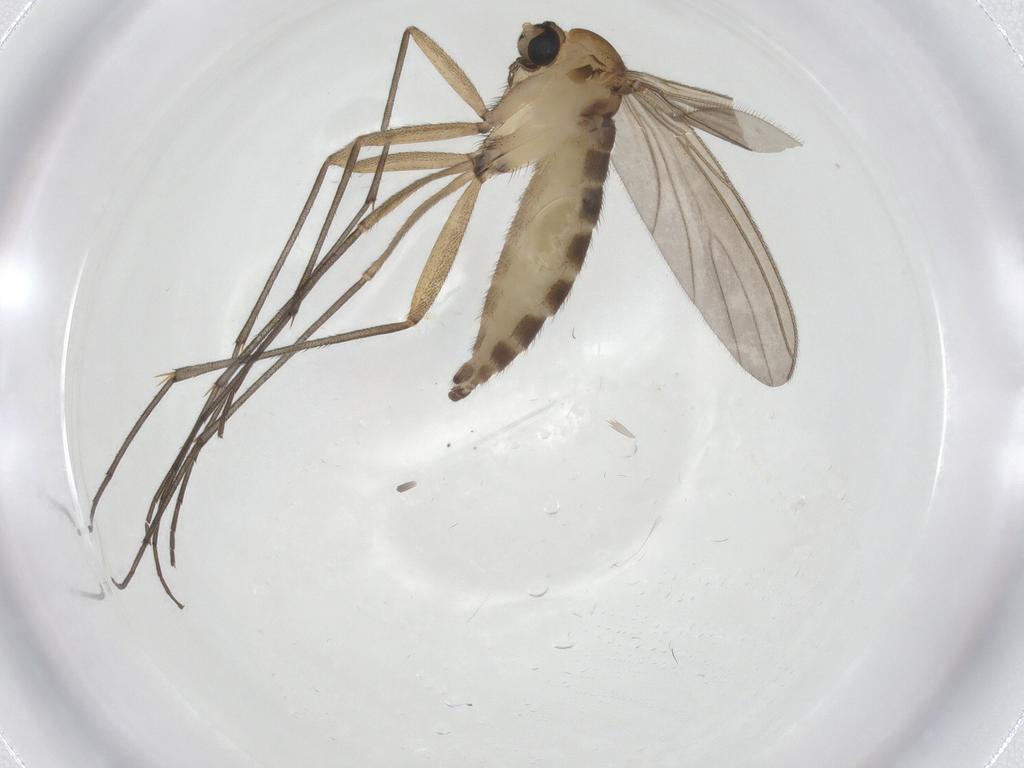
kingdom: Animalia
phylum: Arthropoda
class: Insecta
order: Diptera
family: Sciaridae
